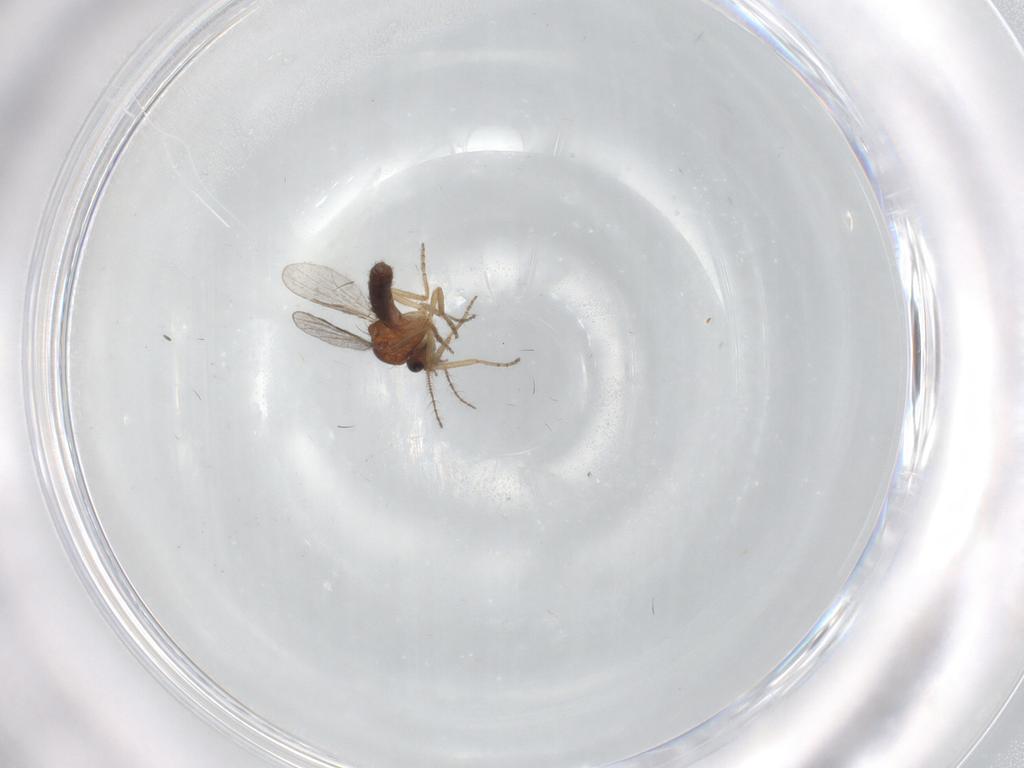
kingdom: Animalia
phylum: Arthropoda
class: Insecta
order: Diptera
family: Ceratopogonidae
